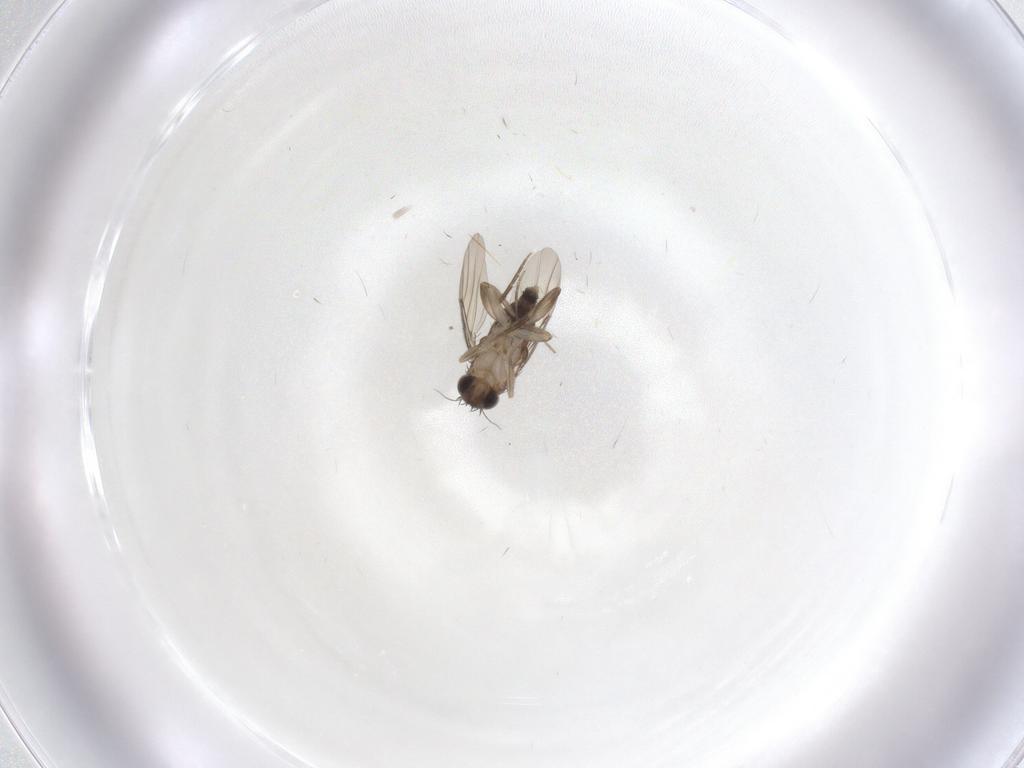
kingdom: Animalia
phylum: Arthropoda
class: Insecta
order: Diptera
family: Phoridae
